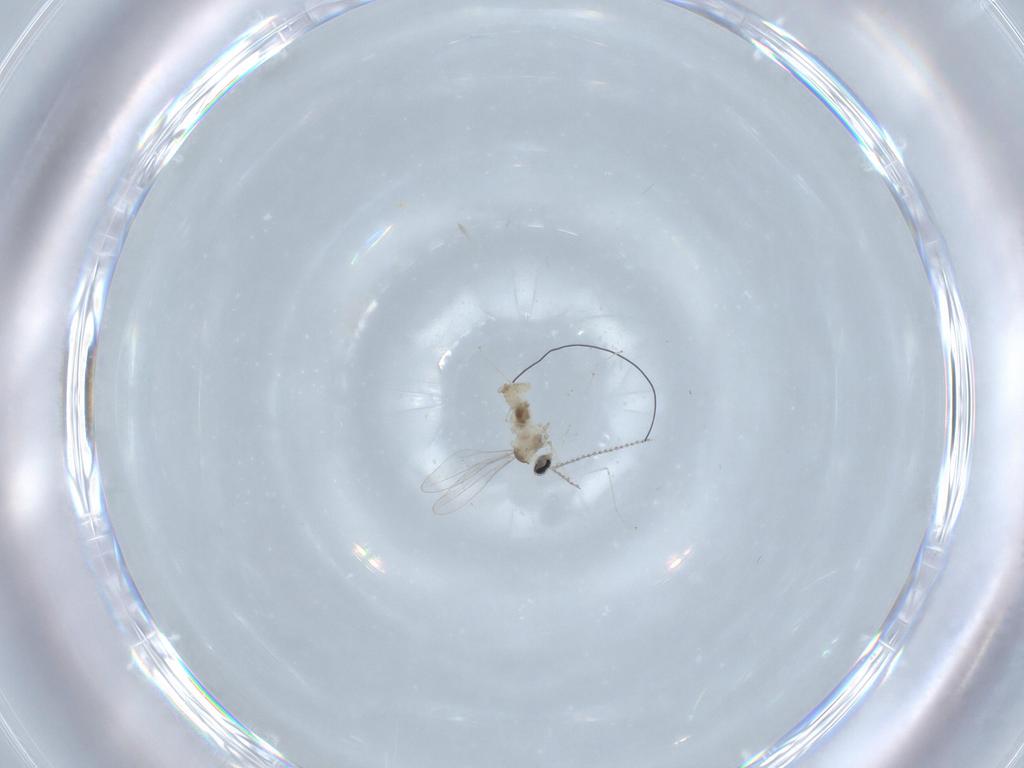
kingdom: Animalia
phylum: Arthropoda
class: Insecta
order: Diptera
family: Cecidomyiidae
